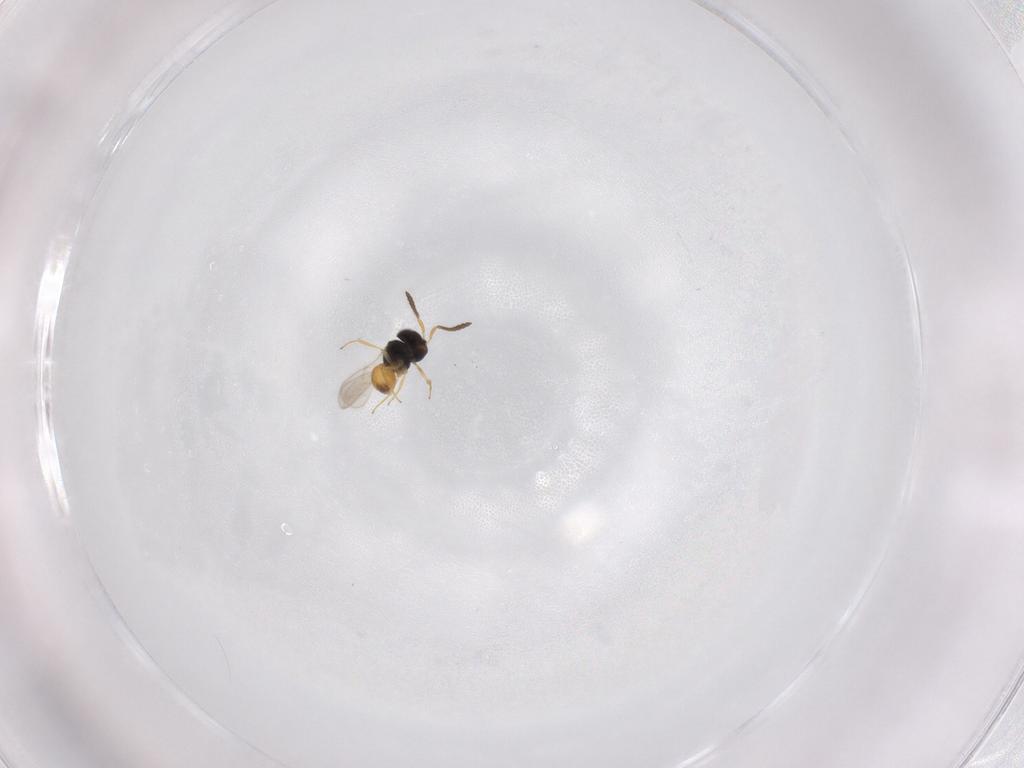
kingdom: Animalia
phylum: Arthropoda
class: Insecta
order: Hymenoptera
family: Scelionidae
